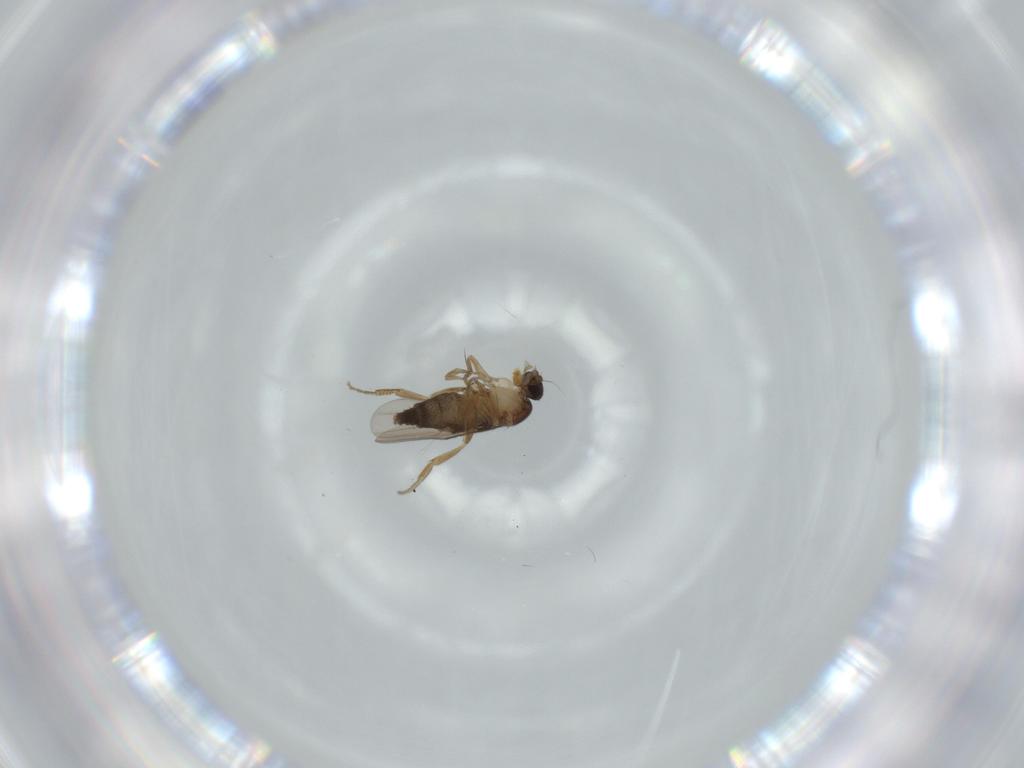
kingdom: Animalia
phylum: Arthropoda
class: Insecta
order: Diptera
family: Phoridae
